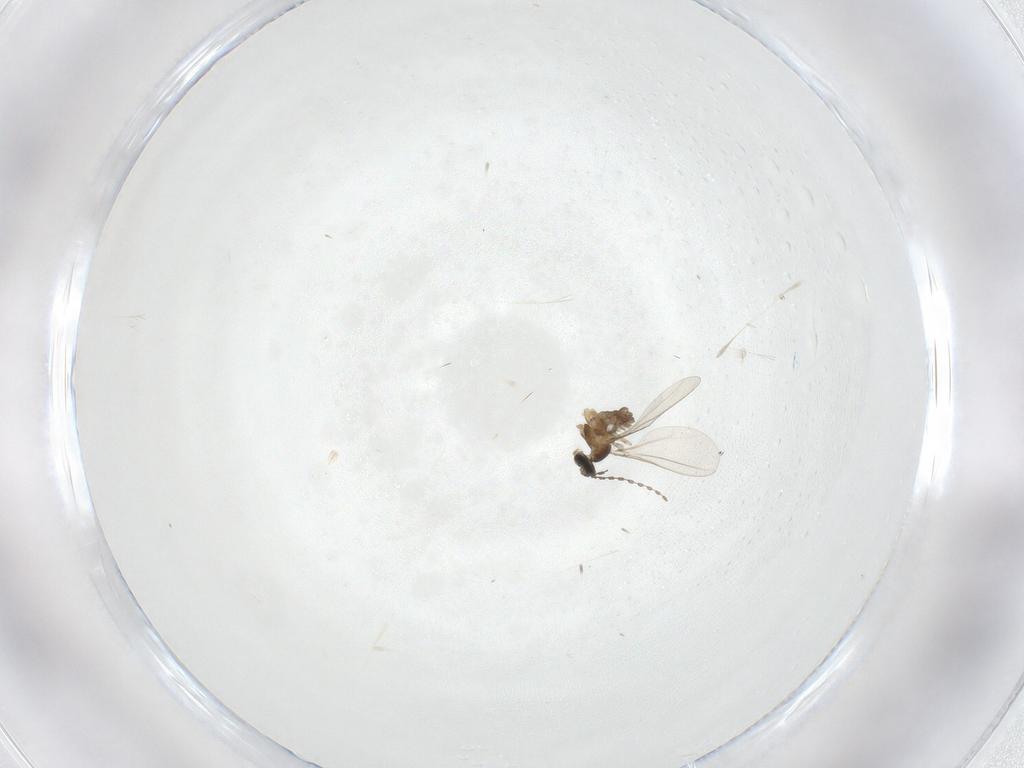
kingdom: Animalia
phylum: Arthropoda
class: Insecta
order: Diptera
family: Cecidomyiidae
